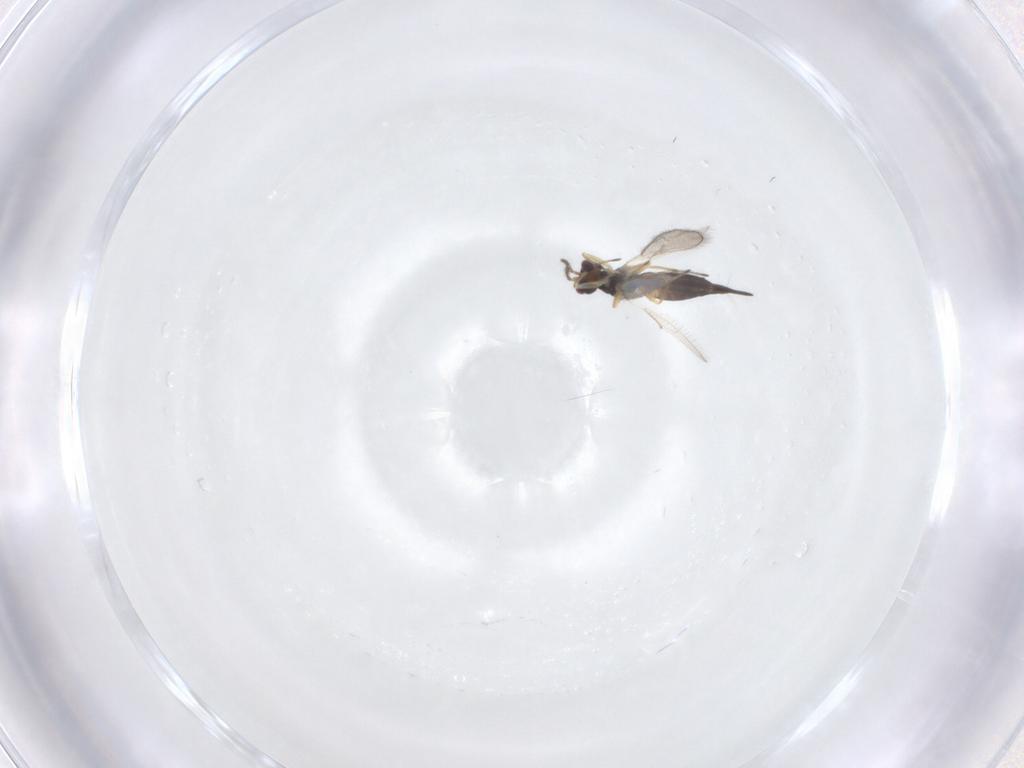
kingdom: Animalia
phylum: Arthropoda
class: Insecta
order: Hymenoptera
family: Eulophidae
